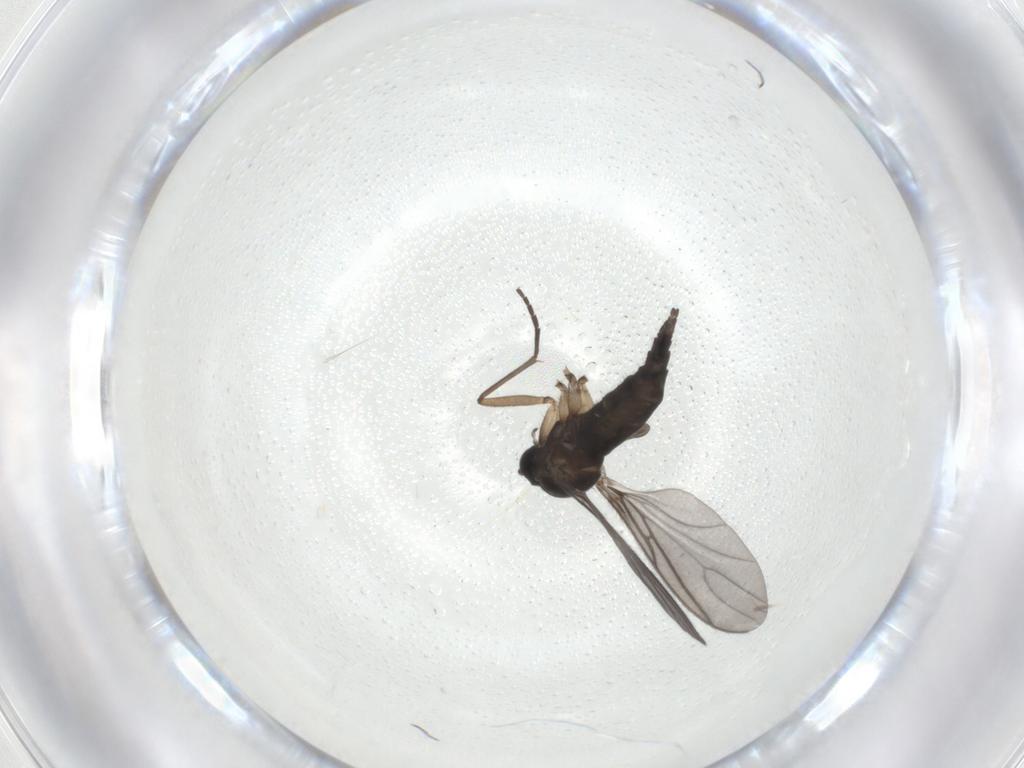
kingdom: Animalia
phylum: Arthropoda
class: Insecta
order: Diptera
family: Sciaridae
